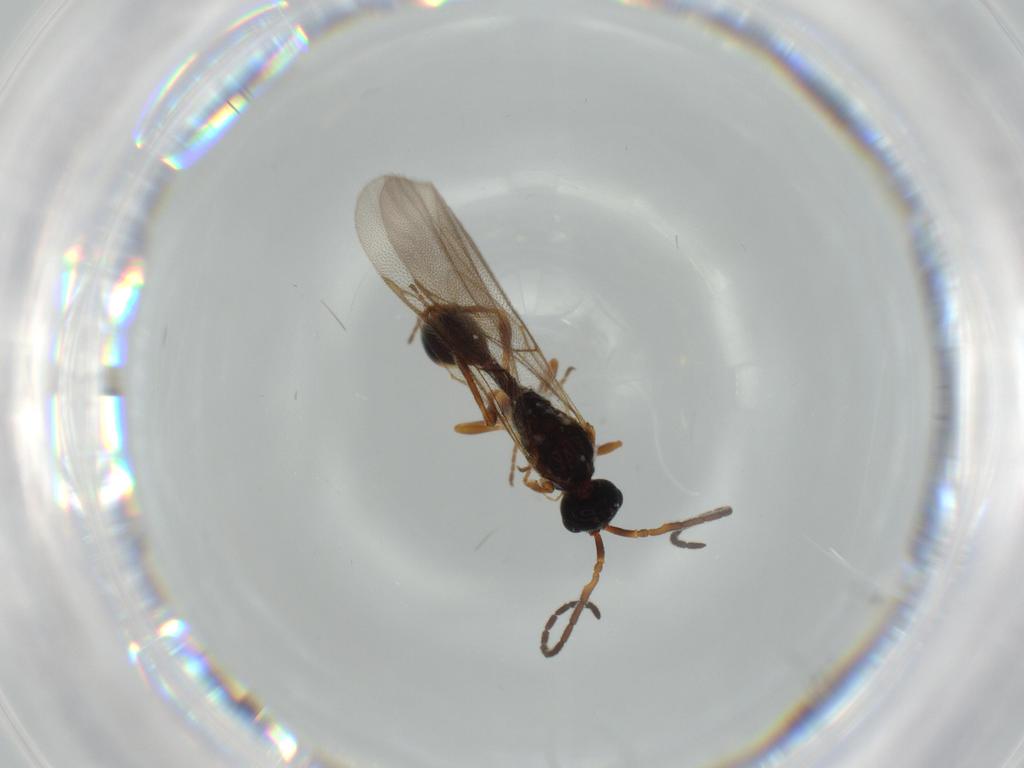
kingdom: Animalia
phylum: Arthropoda
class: Insecta
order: Hymenoptera
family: Diapriidae
